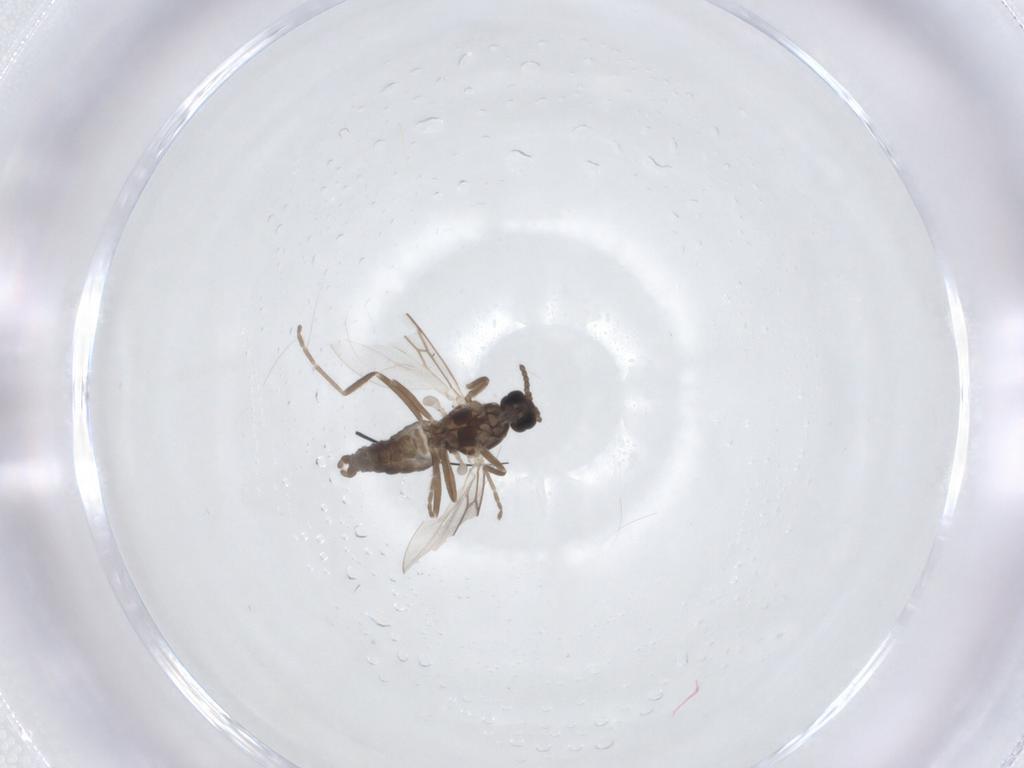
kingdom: Animalia
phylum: Arthropoda
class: Insecta
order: Diptera
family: Cecidomyiidae
